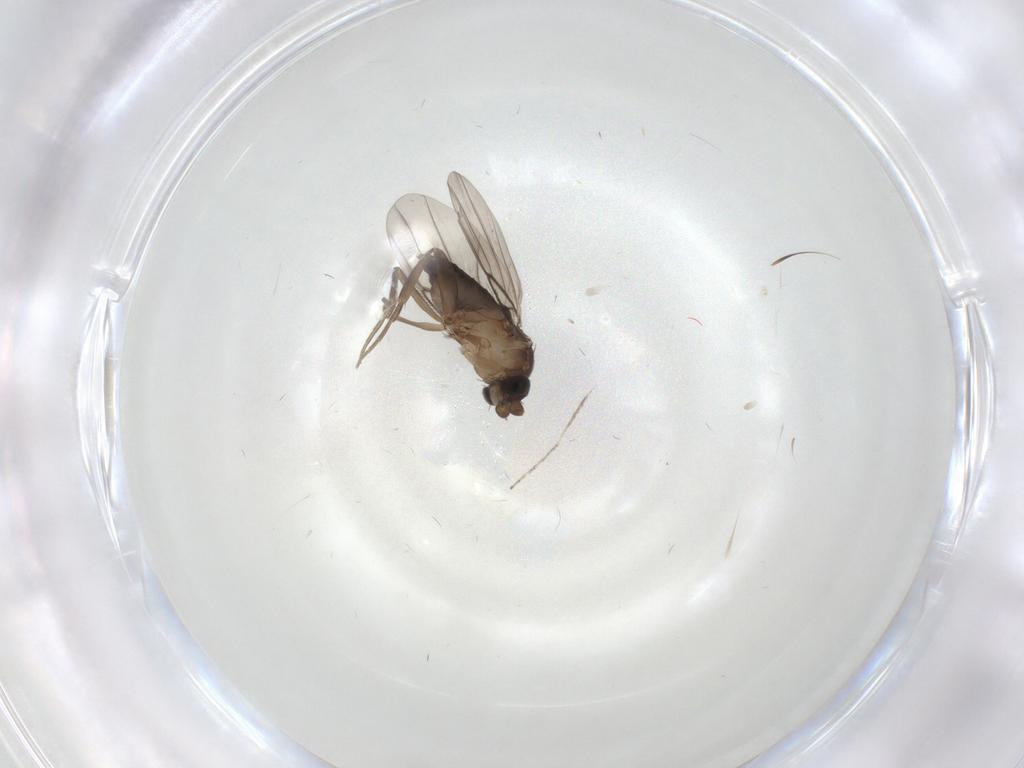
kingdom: Animalia
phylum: Arthropoda
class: Insecta
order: Diptera
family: Phoridae
